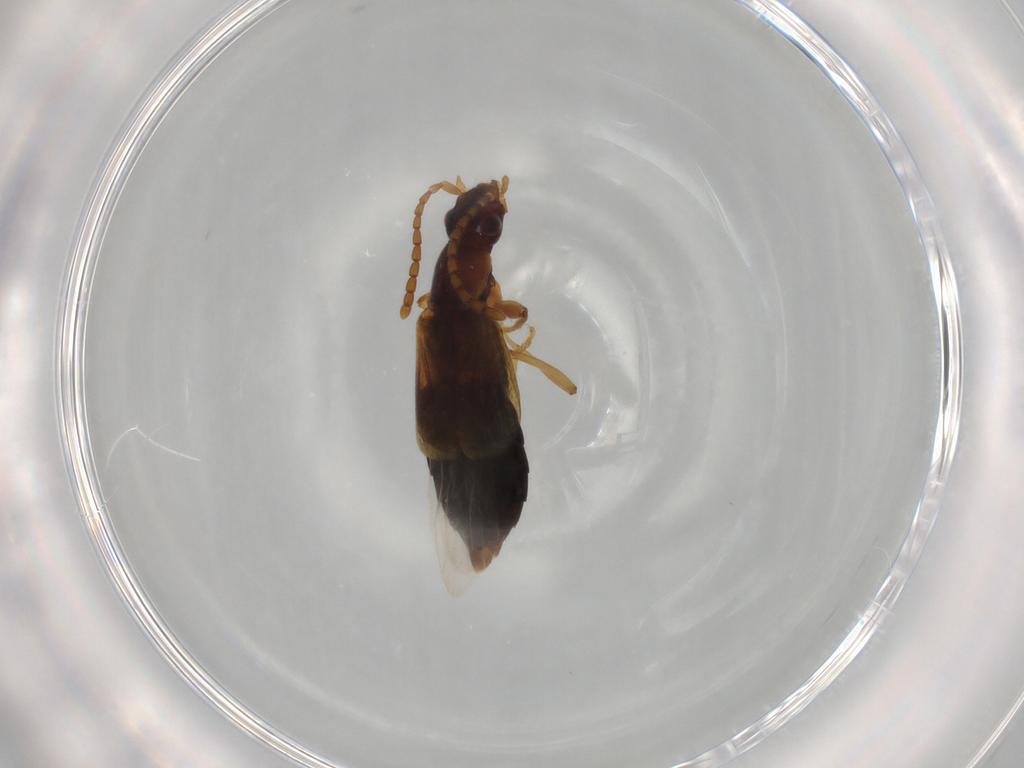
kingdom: Animalia
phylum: Arthropoda
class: Insecta
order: Coleoptera
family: Staphylinidae
